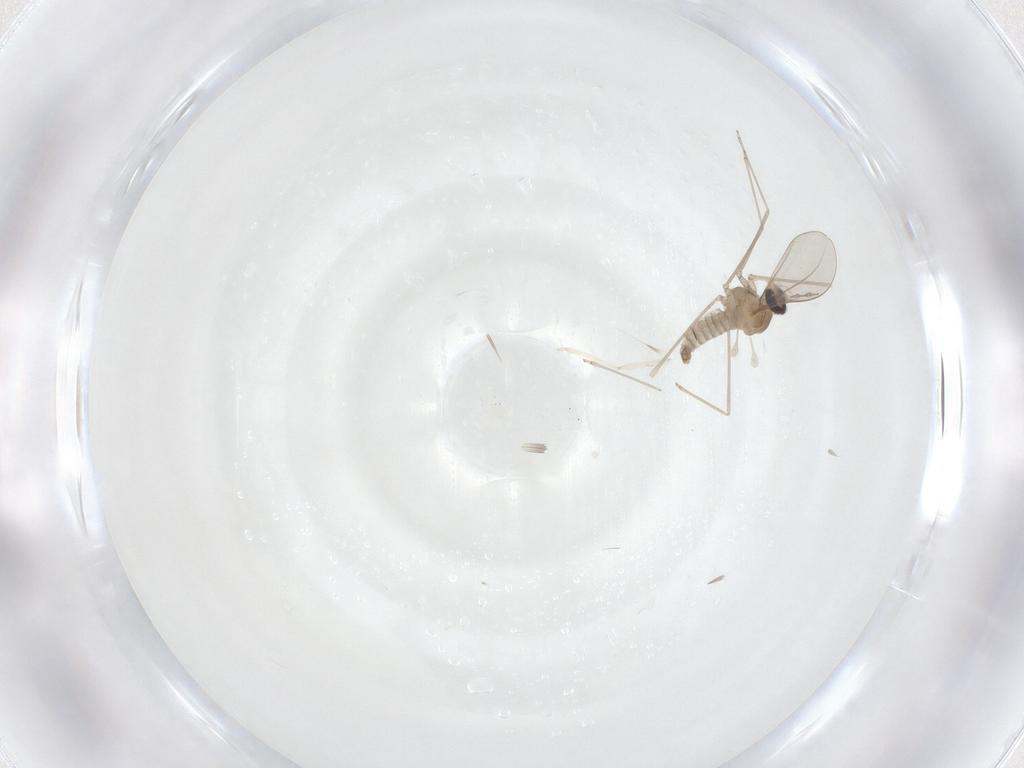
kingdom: Animalia
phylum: Arthropoda
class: Insecta
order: Diptera
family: Cecidomyiidae
